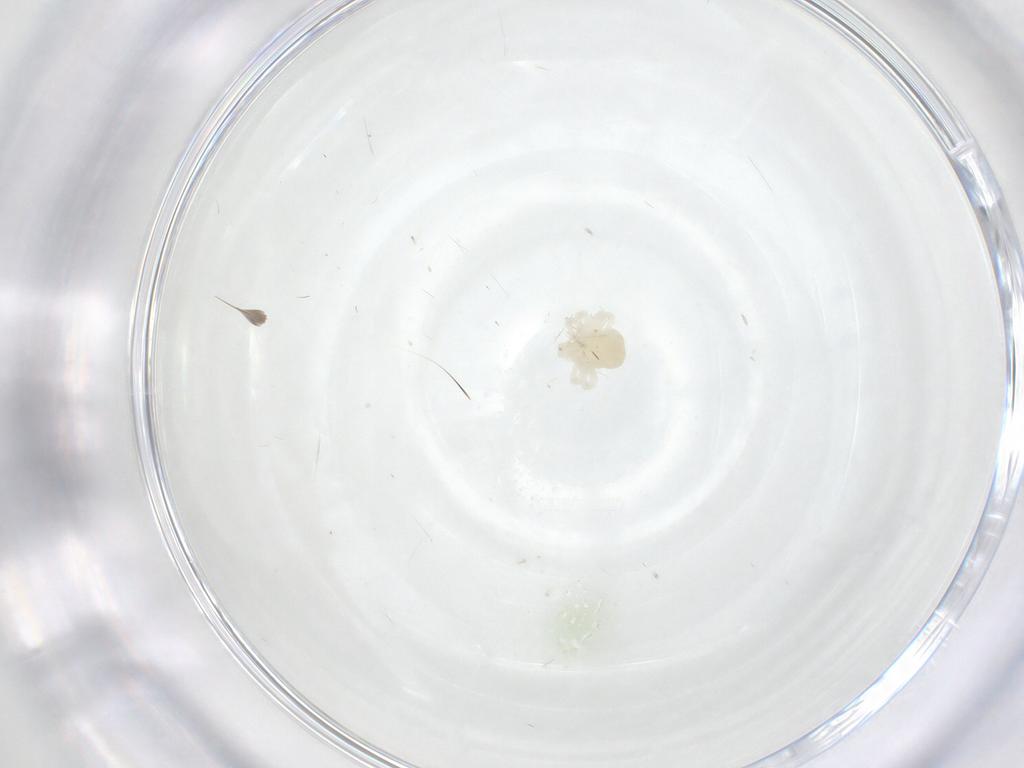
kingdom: Animalia
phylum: Arthropoda
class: Arachnida
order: Trombidiformes
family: Anystidae
